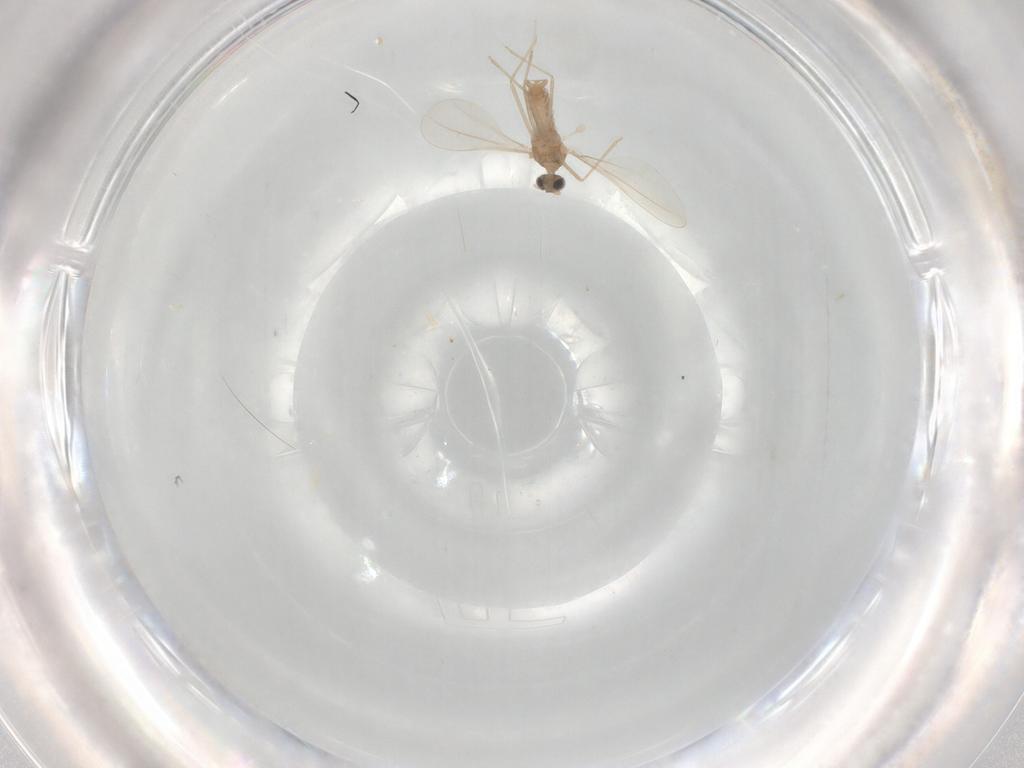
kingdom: Animalia
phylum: Arthropoda
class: Insecta
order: Diptera
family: Cecidomyiidae
